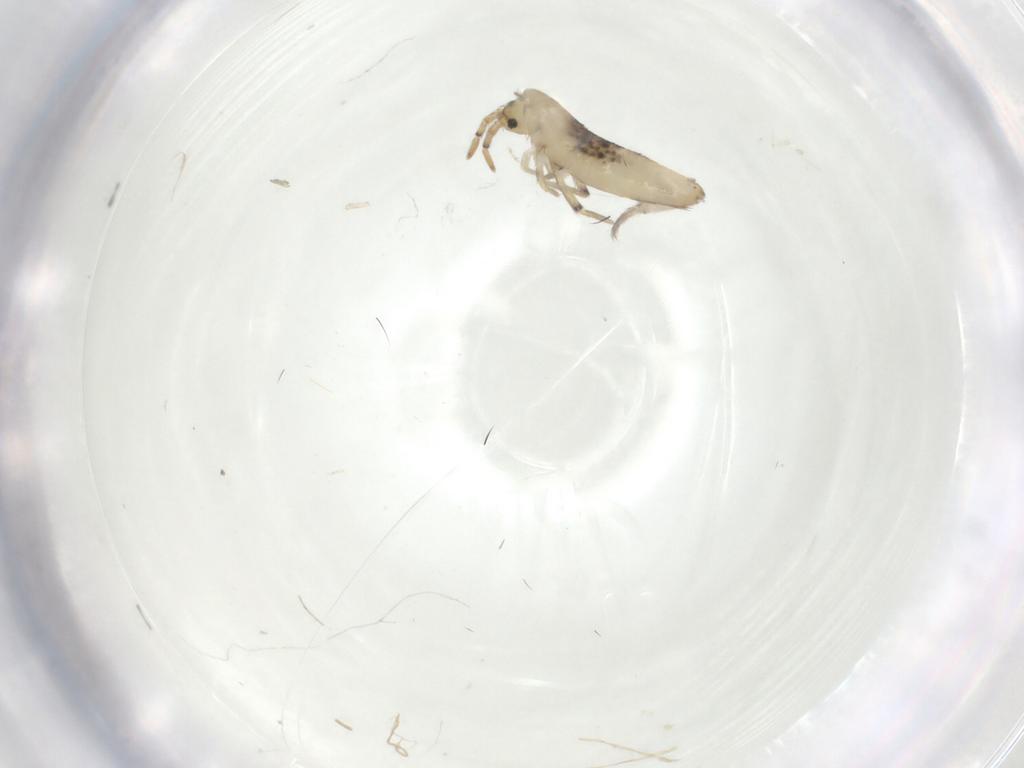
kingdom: Animalia
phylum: Arthropoda
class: Collembola
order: Entomobryomorpha
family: Entomobryidae
